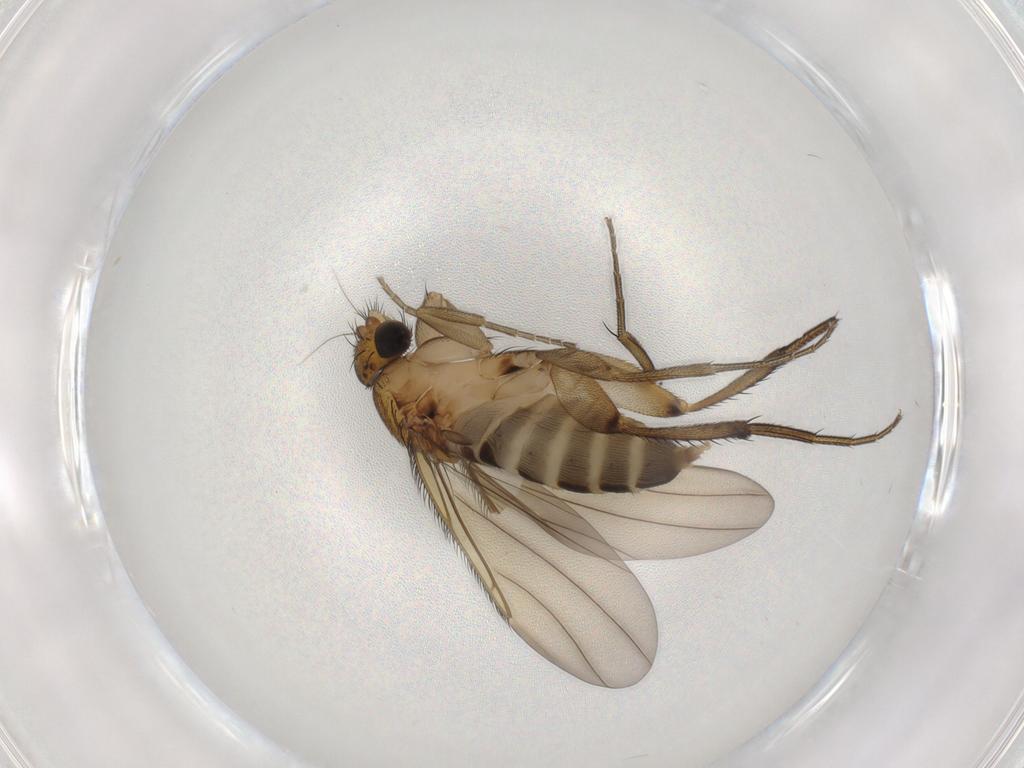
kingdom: Animalia
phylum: Arthropoda
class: Insecta
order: Diptera
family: Phoridae
